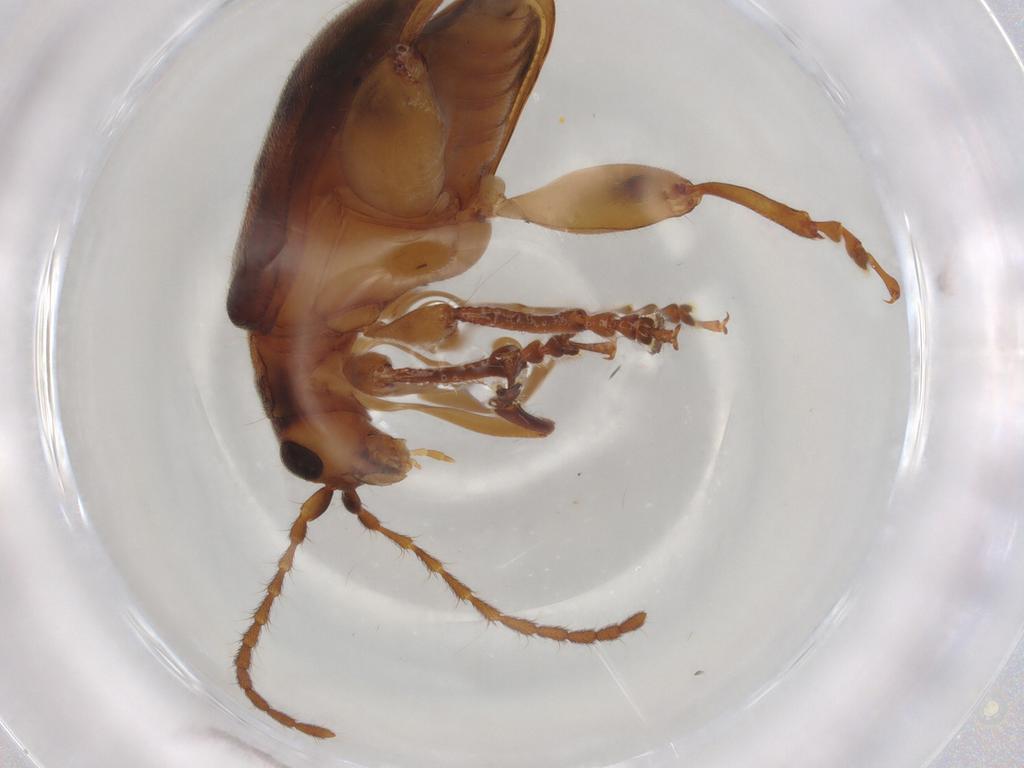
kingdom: Animalia
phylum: Arthropoda
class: Insecta
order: Coleoptera
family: Chrysomelidae
